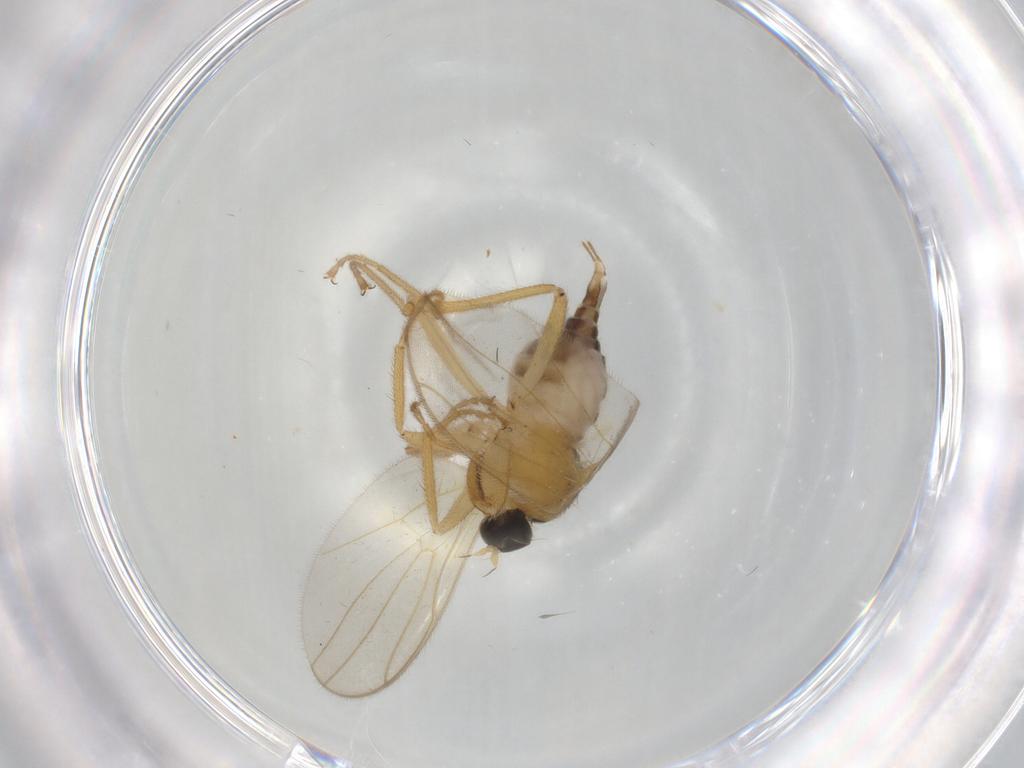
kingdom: Animalia
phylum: Arthropoda
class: Insecta
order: Diptera
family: Hybotidae
